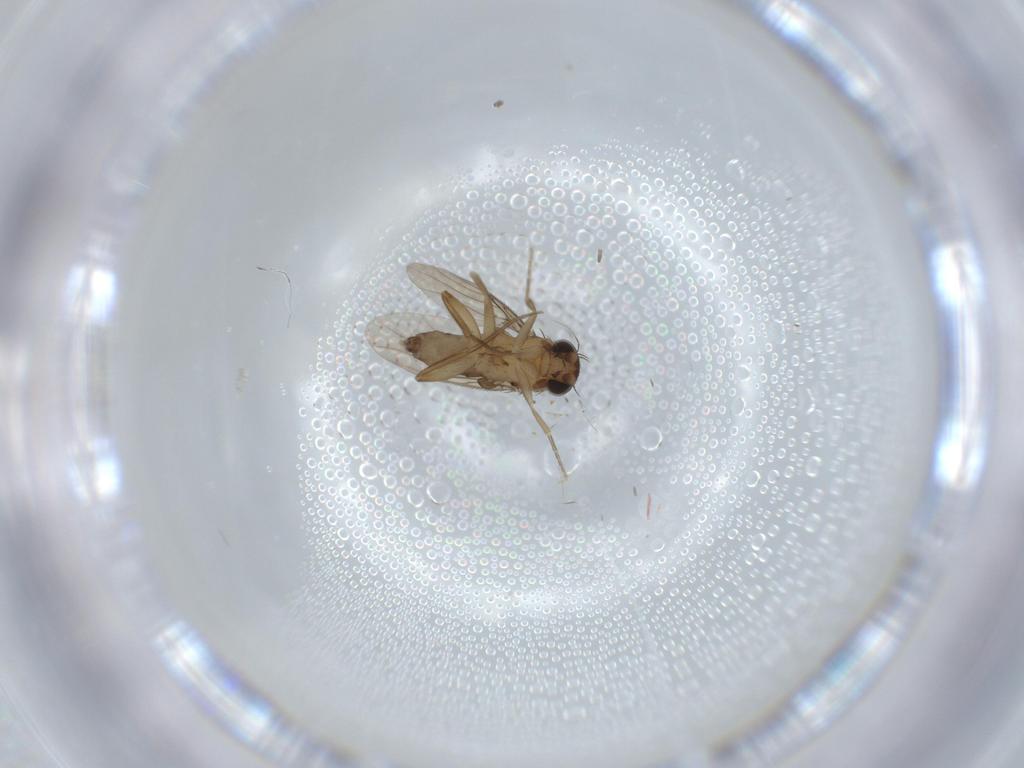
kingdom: Animalia
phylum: Arthropoda
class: Insecta
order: Diptera
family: Phoridae
